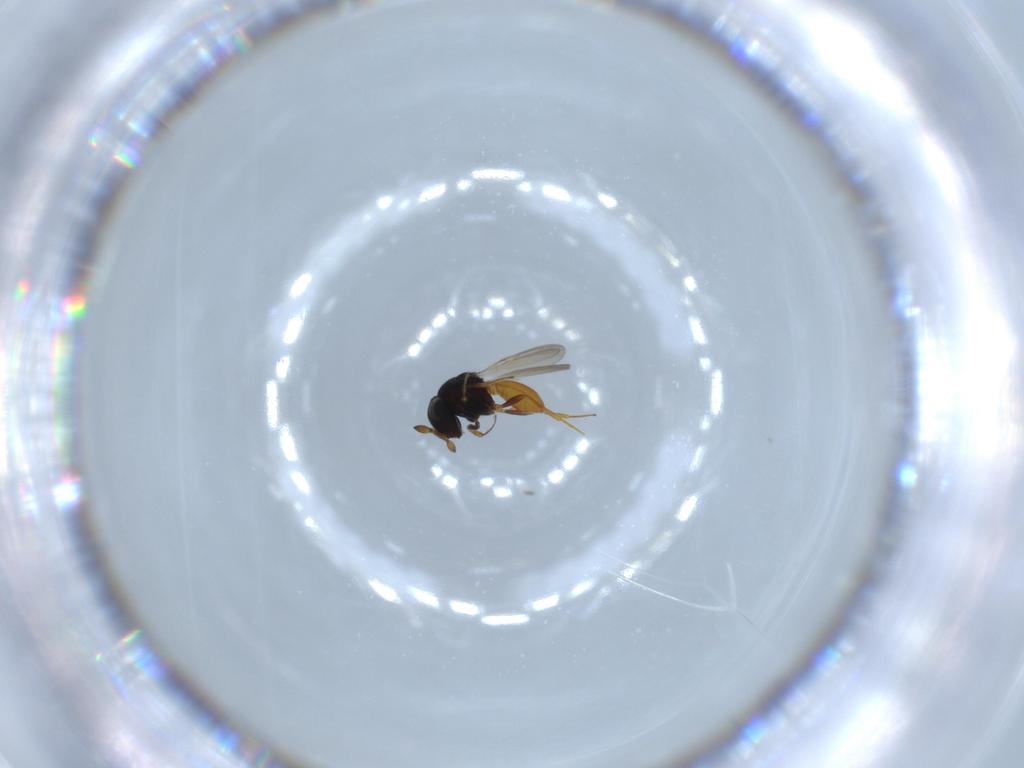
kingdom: Animalia
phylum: Arthropoda
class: Insecta
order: Hymenoptera
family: Scelionidae
